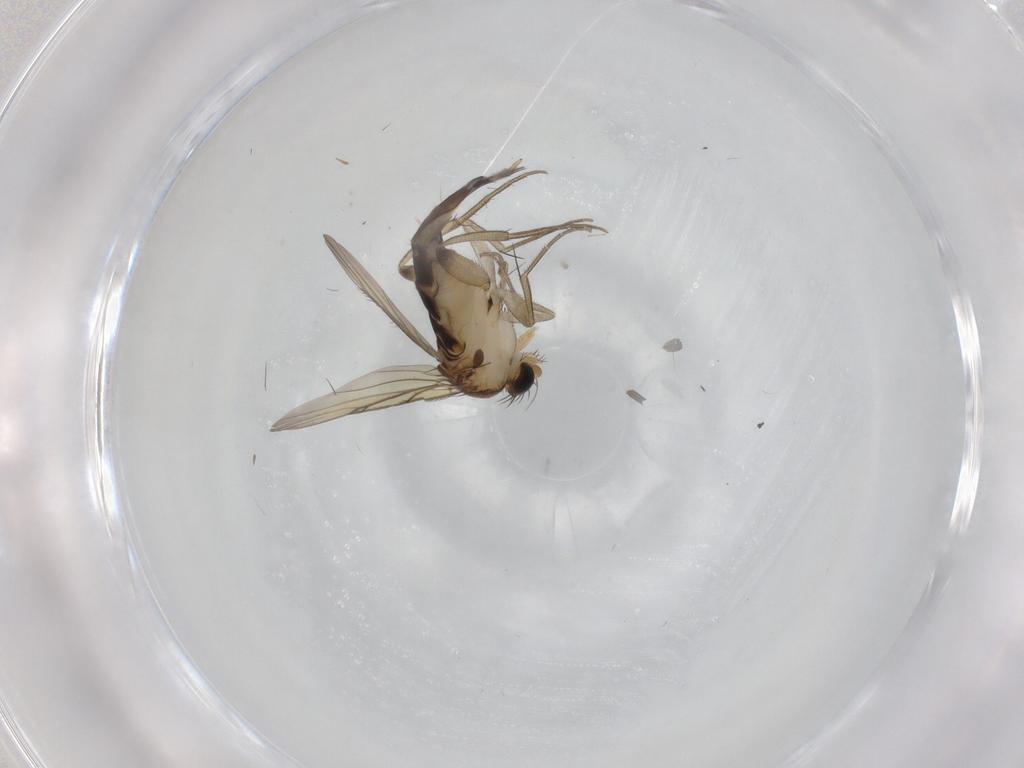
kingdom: Animalia
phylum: Arthropoda
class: Insecta
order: Diptera
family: Phoridae
